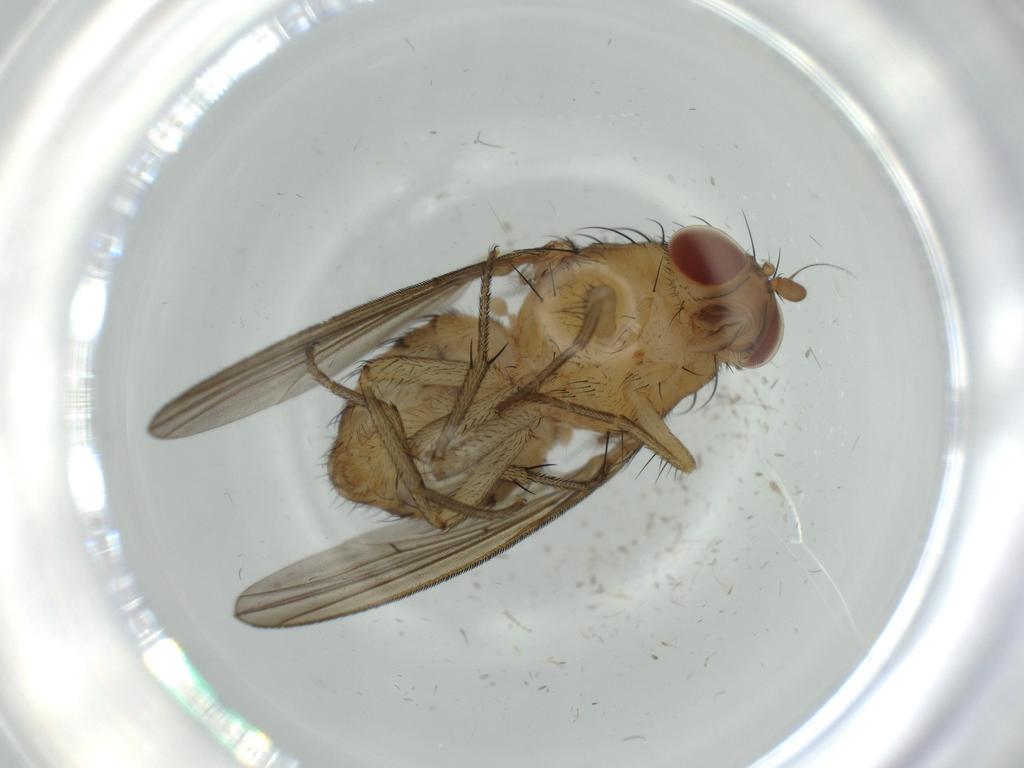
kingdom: Animalia
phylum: Arthropoda
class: Insecta
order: Diptera
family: Cecidomyiidae
